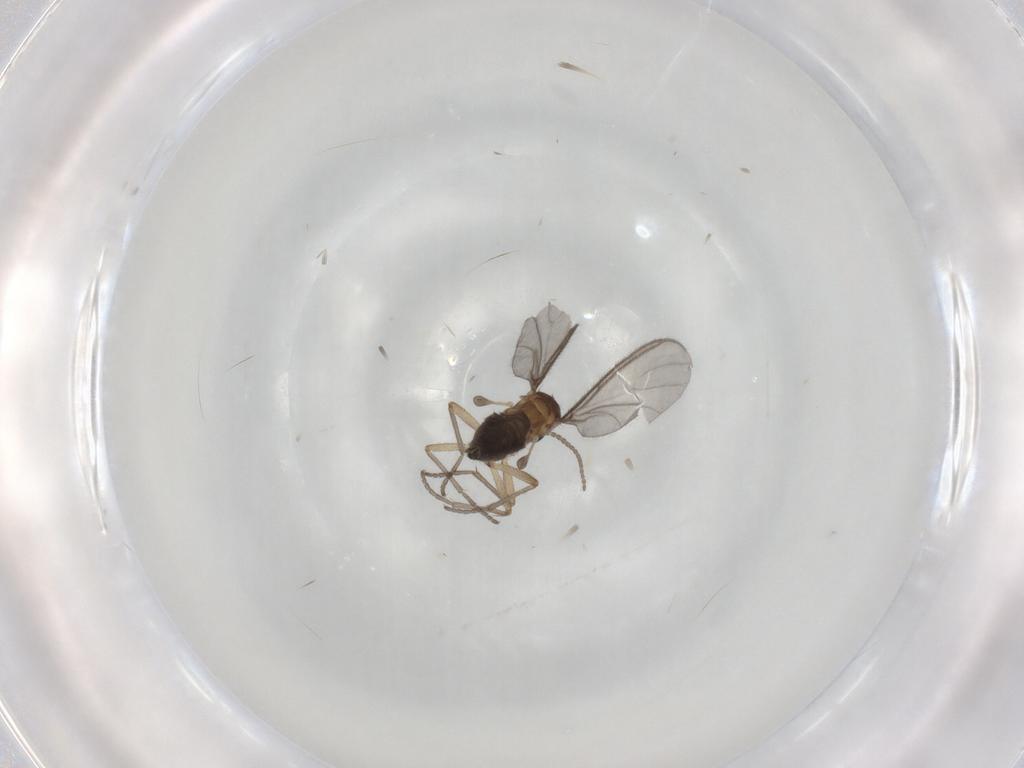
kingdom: Animalia
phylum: Arthropoda
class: Insecta
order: Diptera
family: Sciaridae
